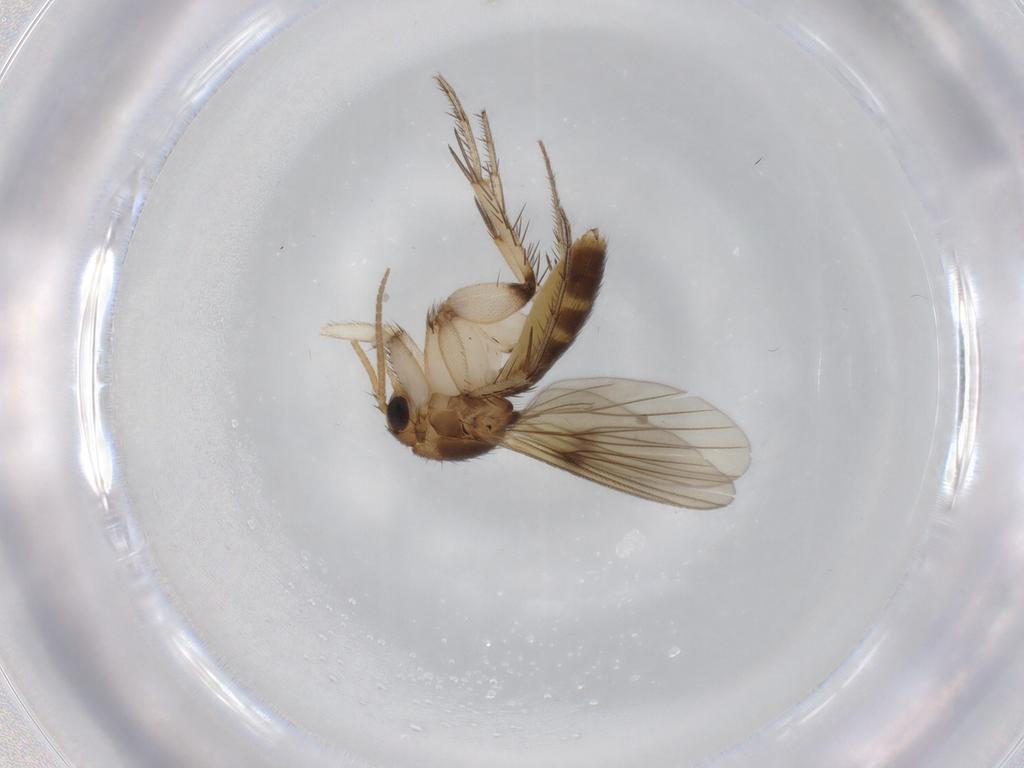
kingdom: Animalia
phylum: Arthropoda
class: Insecta
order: Diptera
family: Mycetophilidae
